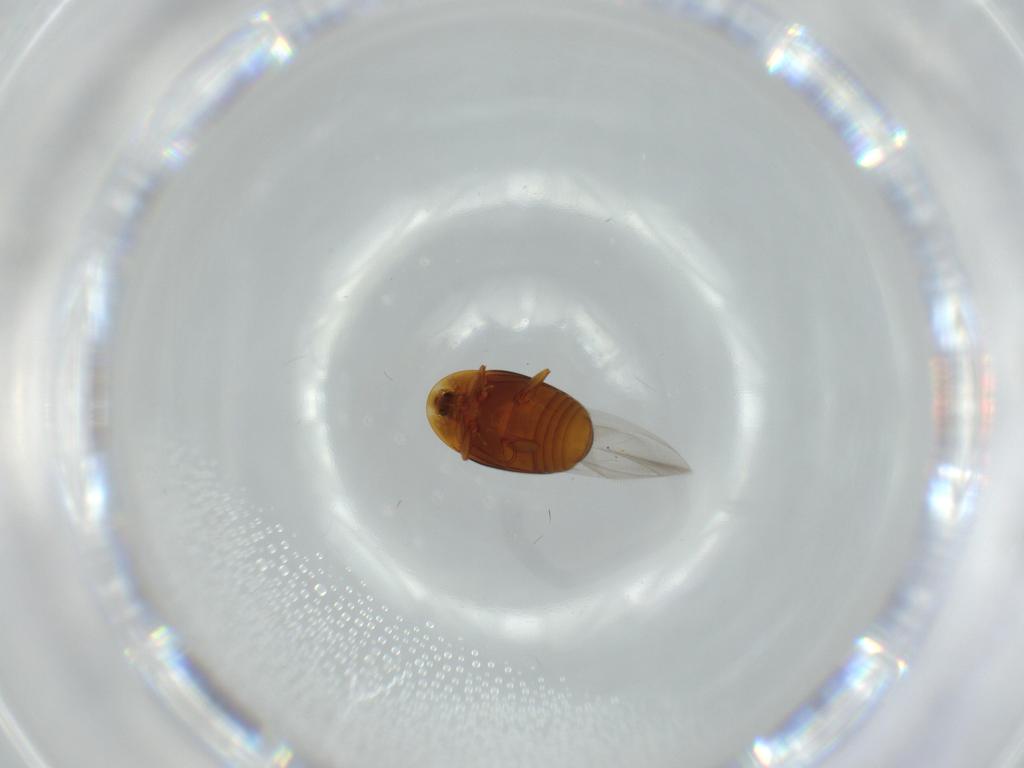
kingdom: Animalia
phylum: Arthropoda
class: Insecta
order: Coleoptera
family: Corylophidae
